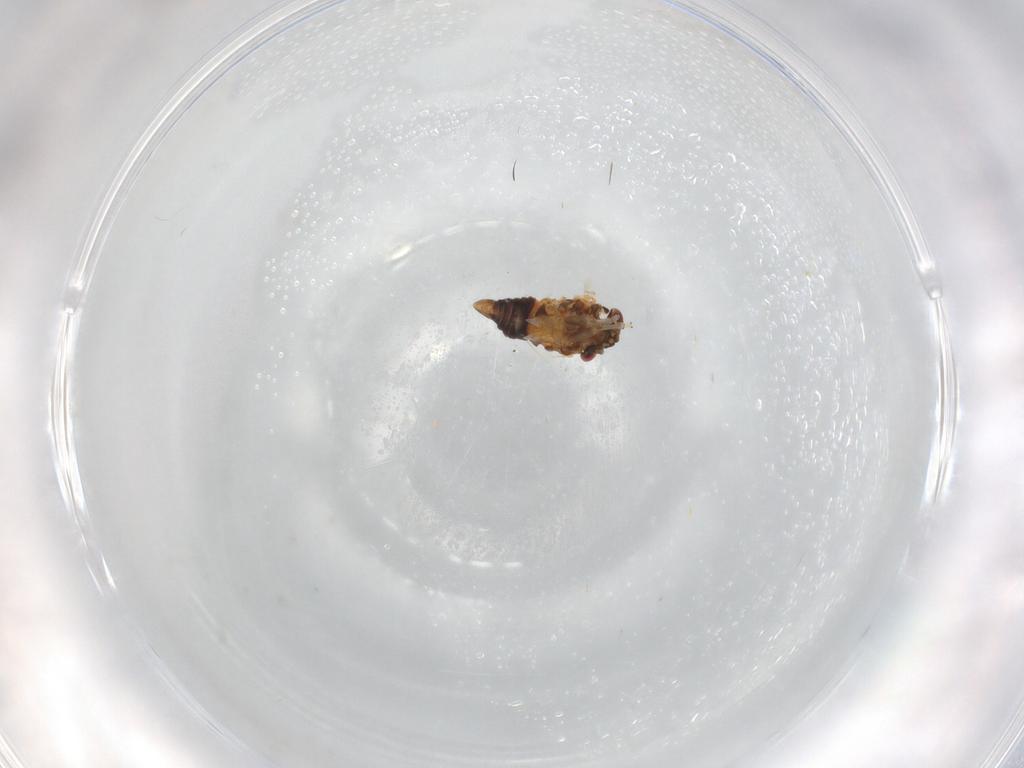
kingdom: Animalia
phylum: Arthropoda
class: Insecta
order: Hemiptera
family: Psyllidae
